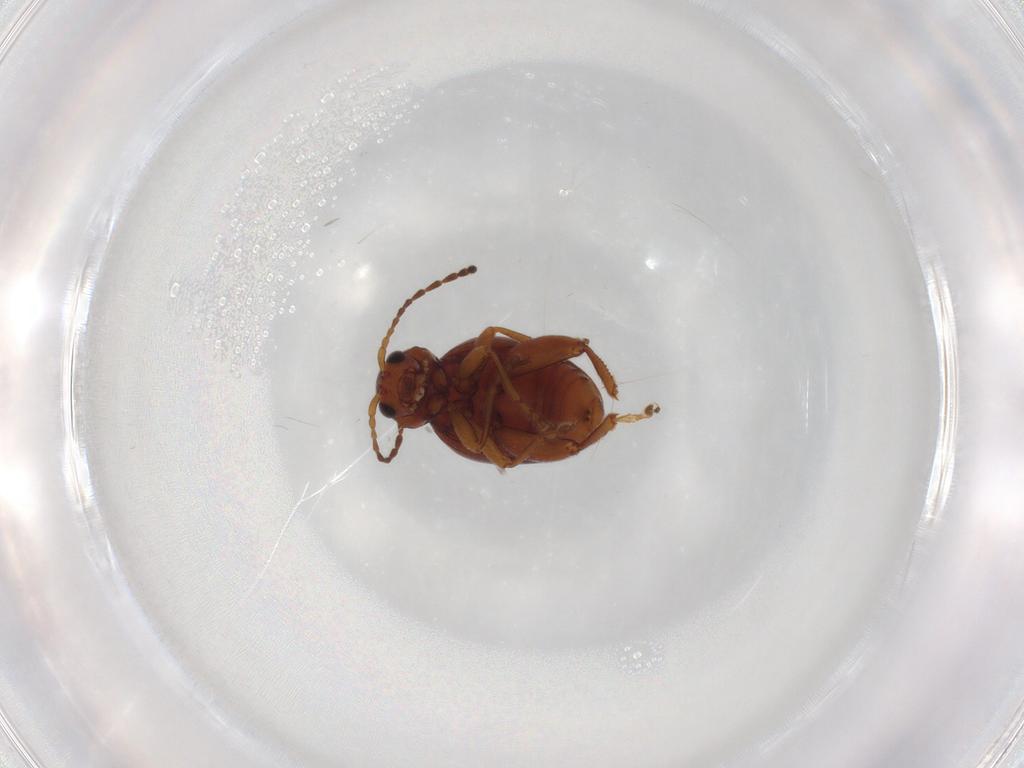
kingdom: Animalia
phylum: Arthropoda
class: Insecta
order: Coleoptera
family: Chrysomelidae
